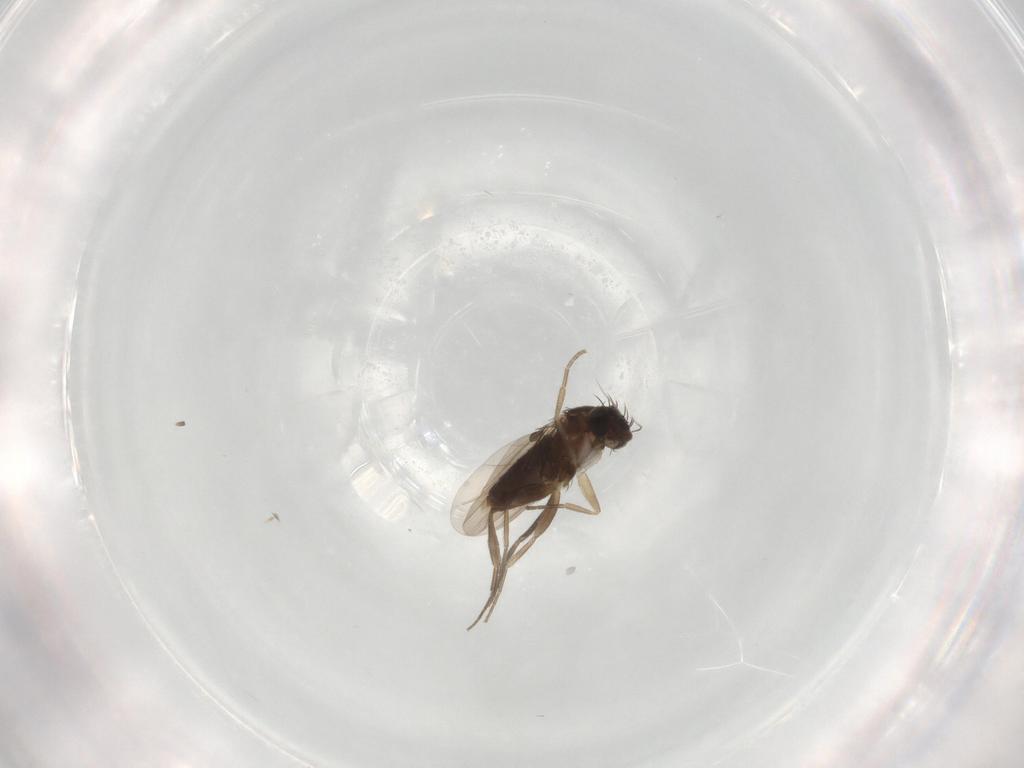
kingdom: Animalia
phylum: Arthropoda
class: Insecta
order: Diptera
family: Phoridae
